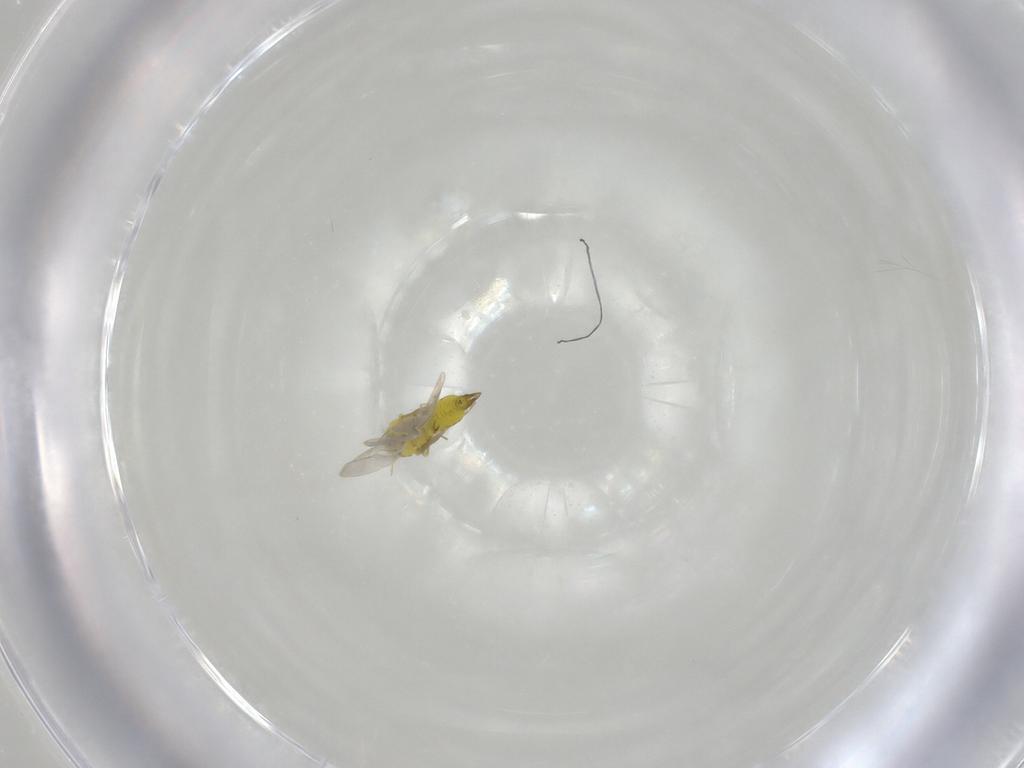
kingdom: Animalia
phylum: Arthropoda
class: Insecta
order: Hemiptera
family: Aleyrodidae
